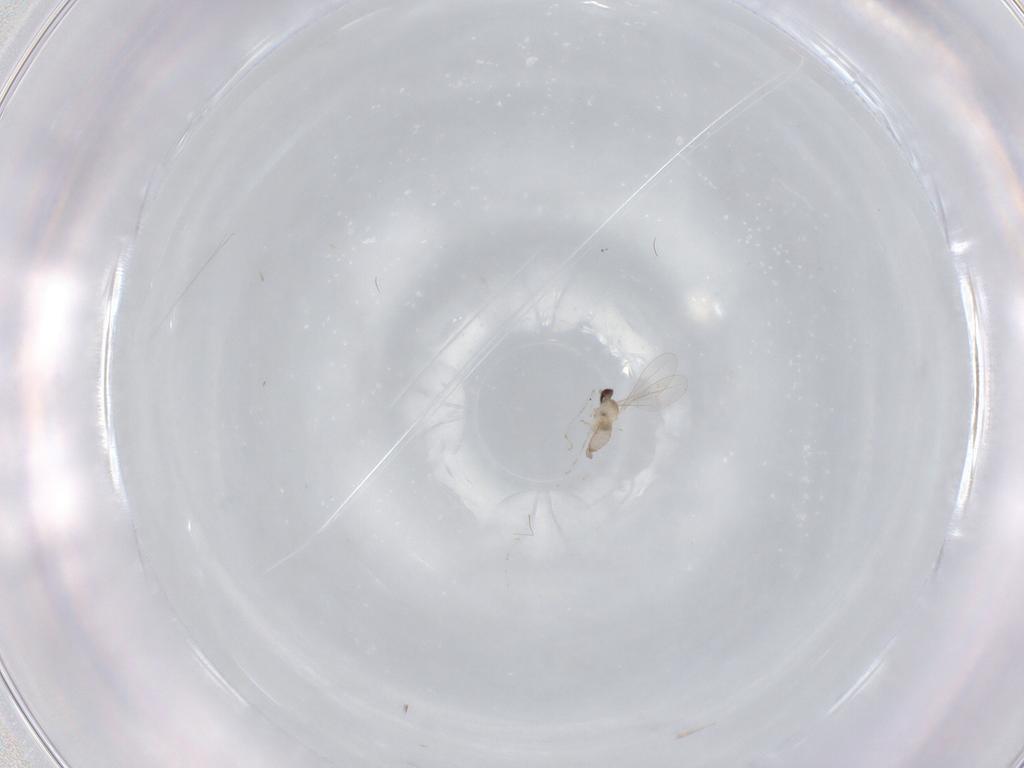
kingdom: Animalia
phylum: Arthropoda
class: Insecta
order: Diptera
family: Cecidomyiidae
